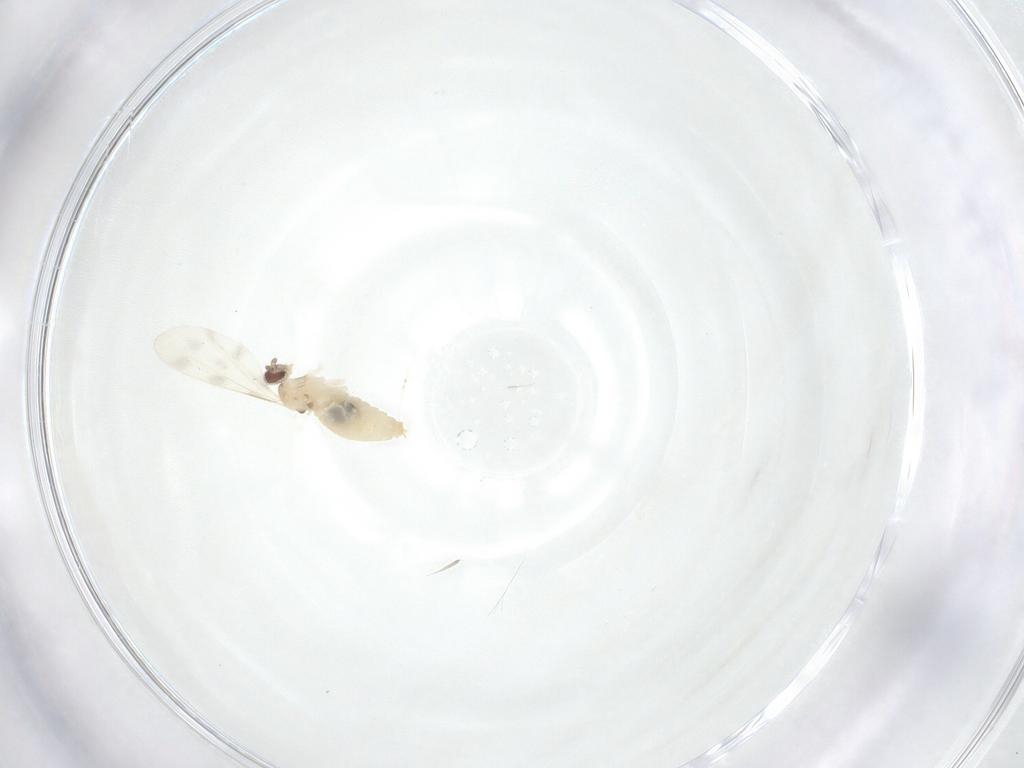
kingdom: Animalia
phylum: Arthropoda
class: Insecta
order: Diptera
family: Cecidomyiidae
